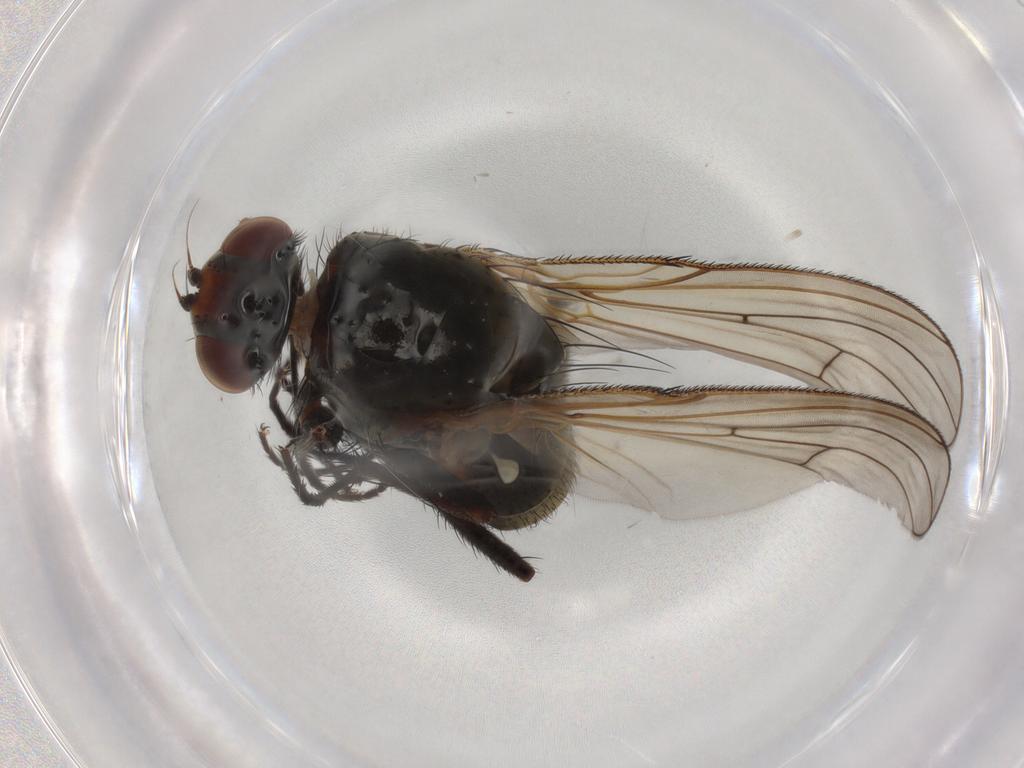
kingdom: Animalia
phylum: Arthropoda
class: Insecta
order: Diptera
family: Anthomyiidae
